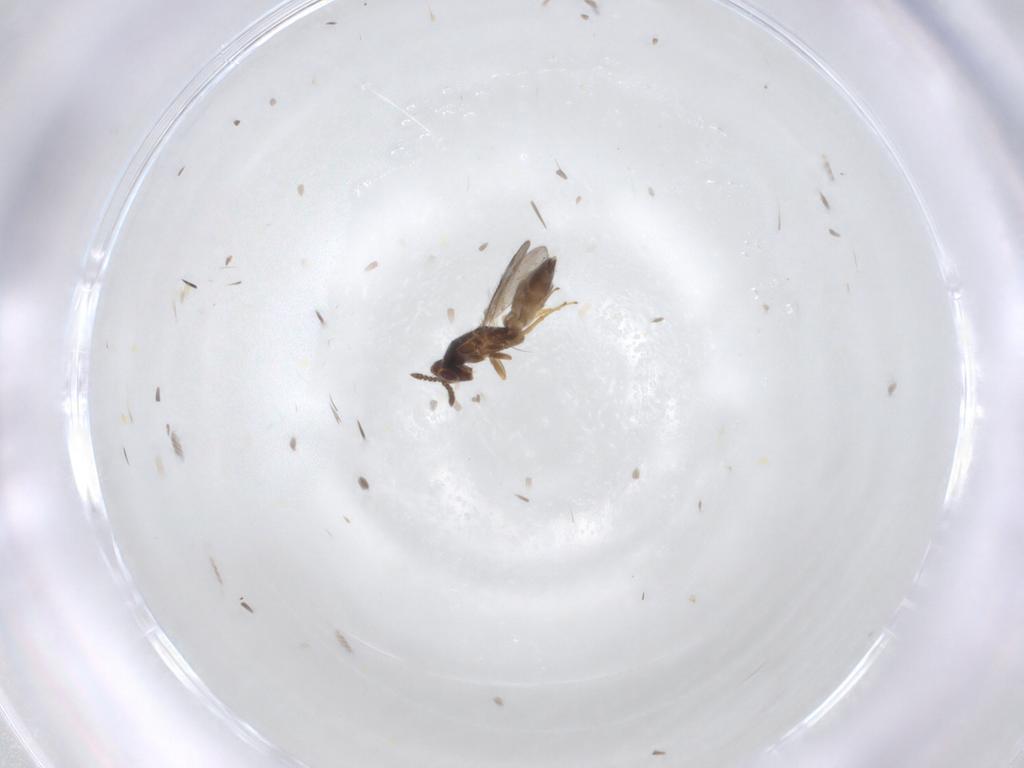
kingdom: Animalia
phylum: Arthropoda
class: Insecta
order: Hymenoptera
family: Eulophidae
